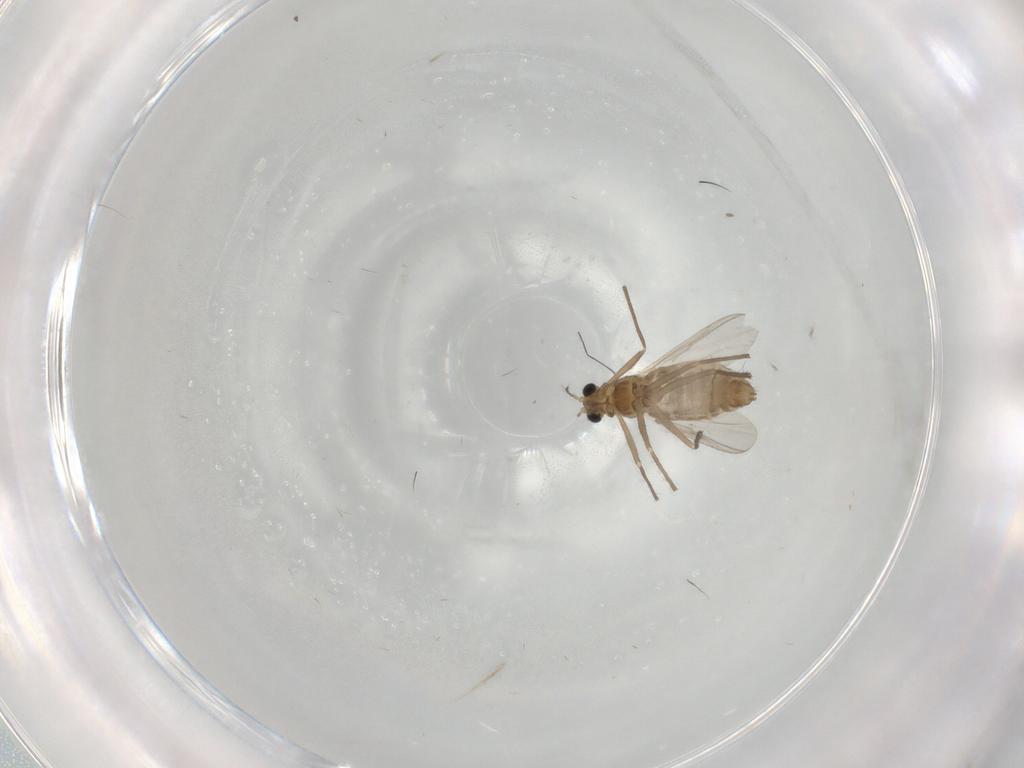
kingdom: Animalia
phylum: Arthropoda
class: Insecta
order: Diptera
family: Chironomidae
